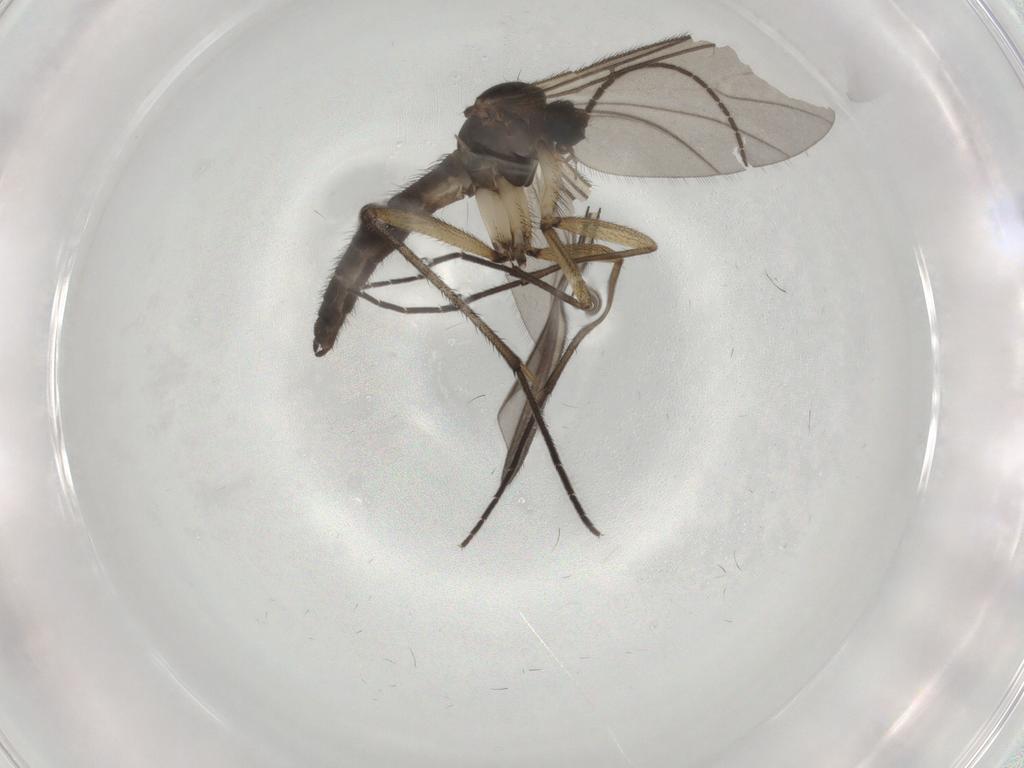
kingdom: Animalia
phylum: Arthropoda
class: Insecta
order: Diptera
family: Sciaridae
